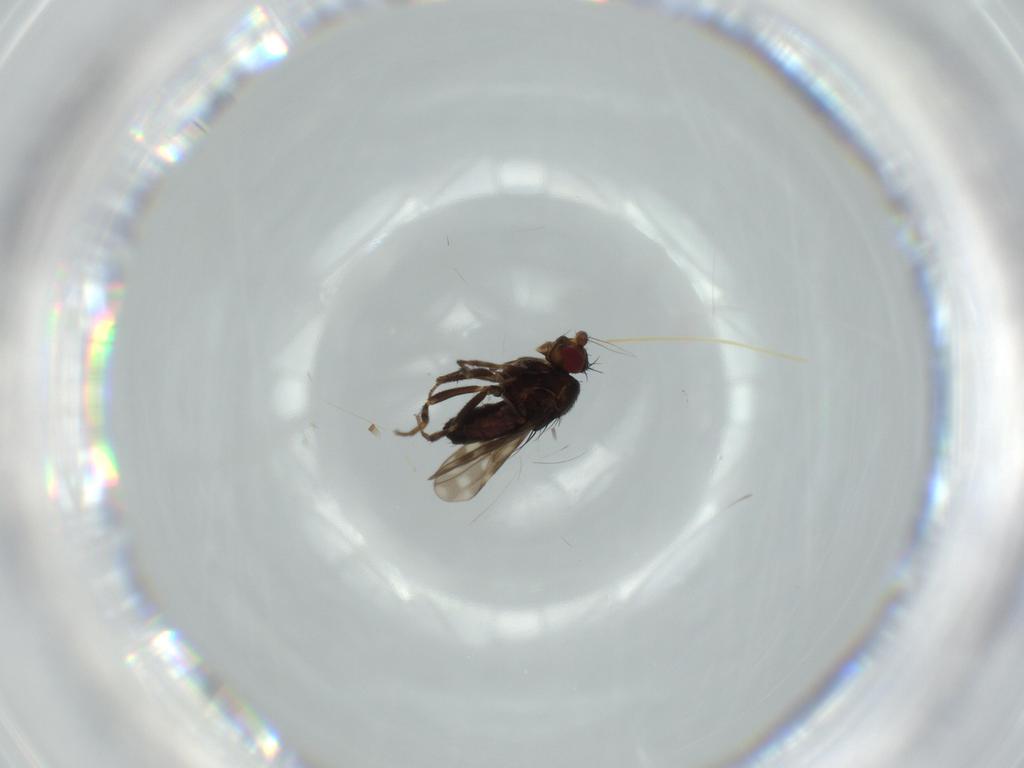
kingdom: Animalia
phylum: Arthropoda
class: Insecta
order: Diptera
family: Sphaeroceridae
